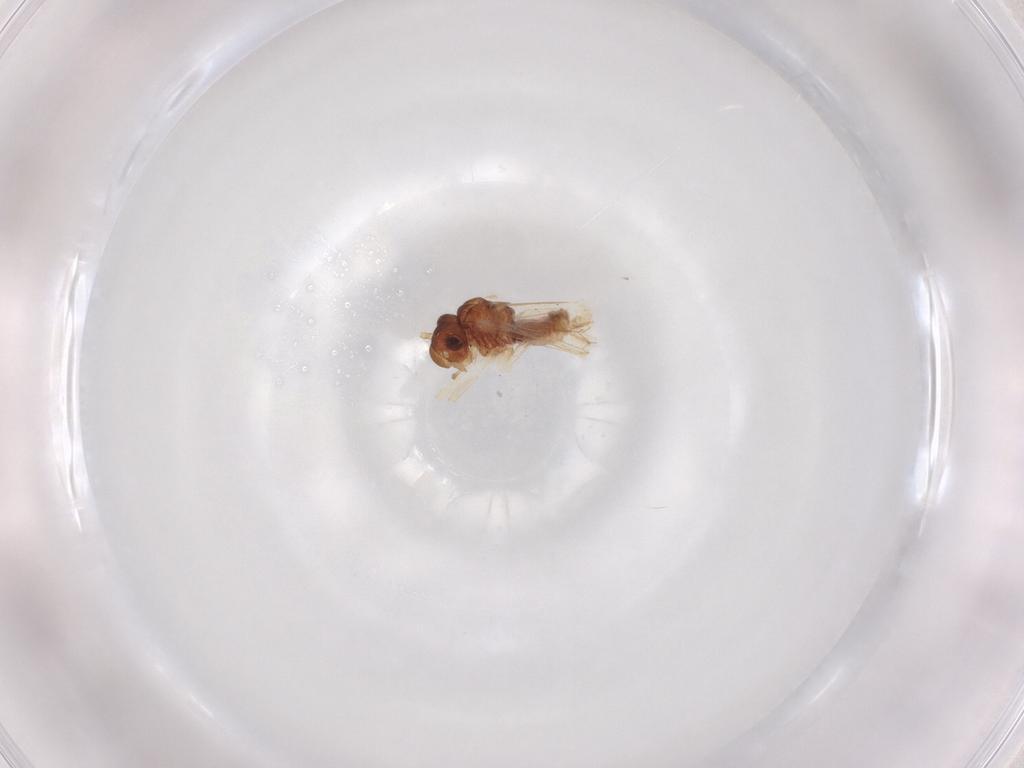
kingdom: Animalia
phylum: Arthropoda
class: Insecta
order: Psocodea
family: Caeciliusidae
